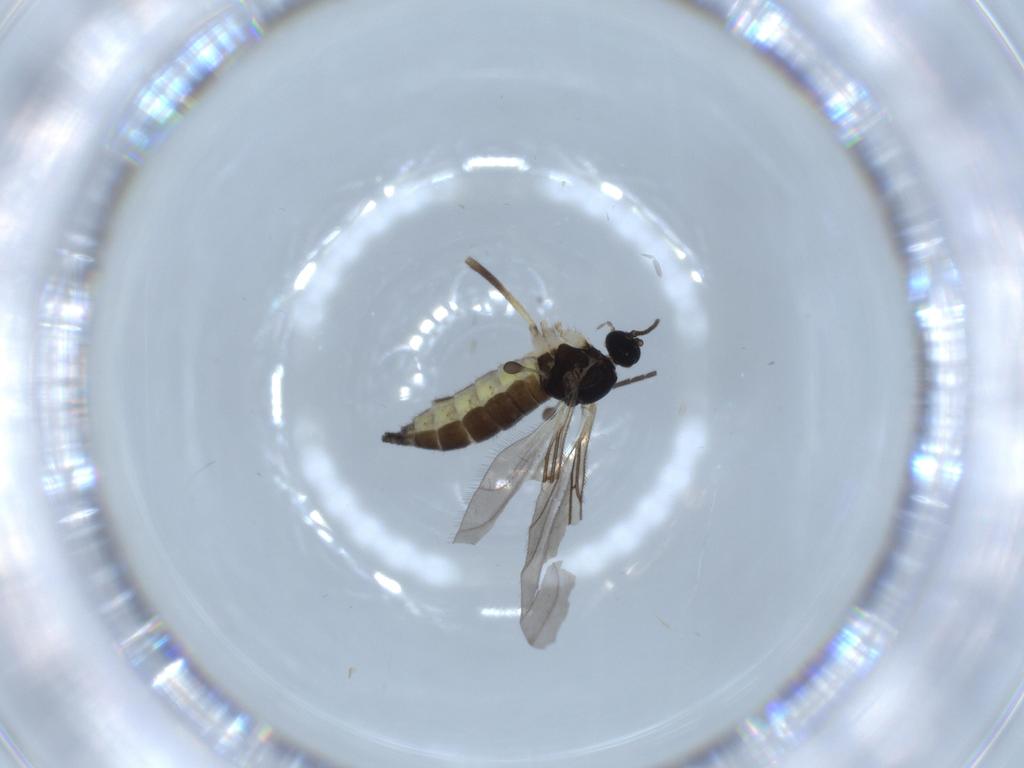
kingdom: Animalia
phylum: Arthropoda
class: Insecta
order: Diptera
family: Sciaridae
